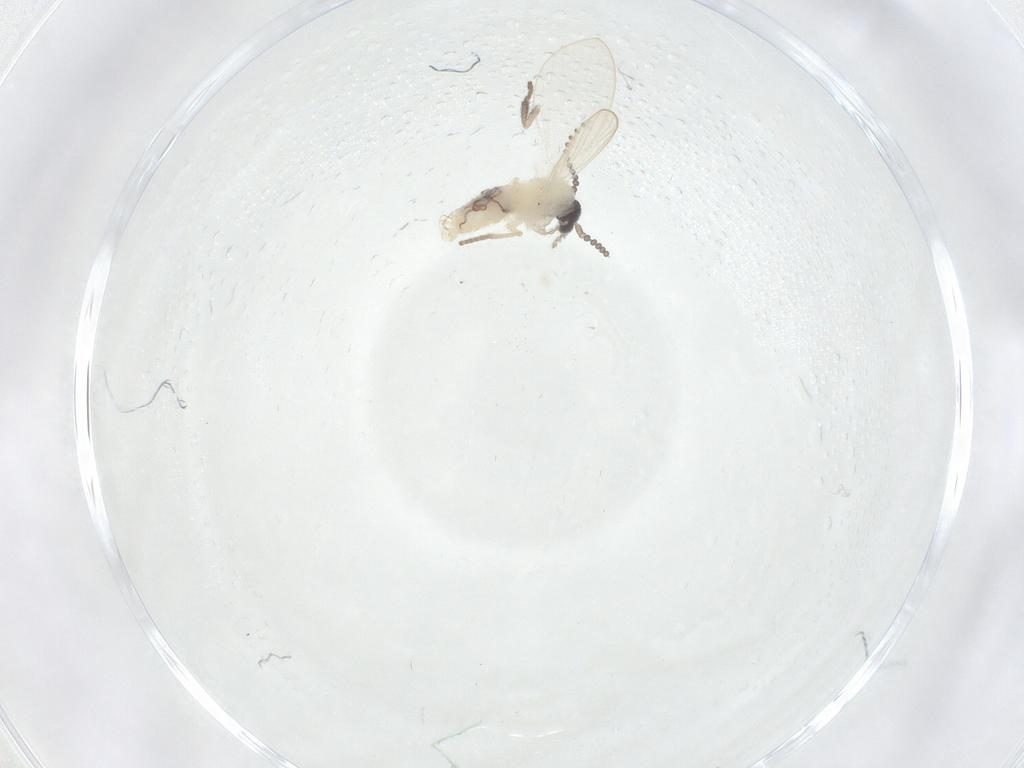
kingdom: Animalia
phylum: Arthropoda
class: Insecta
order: Diptera
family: Psychodidae
